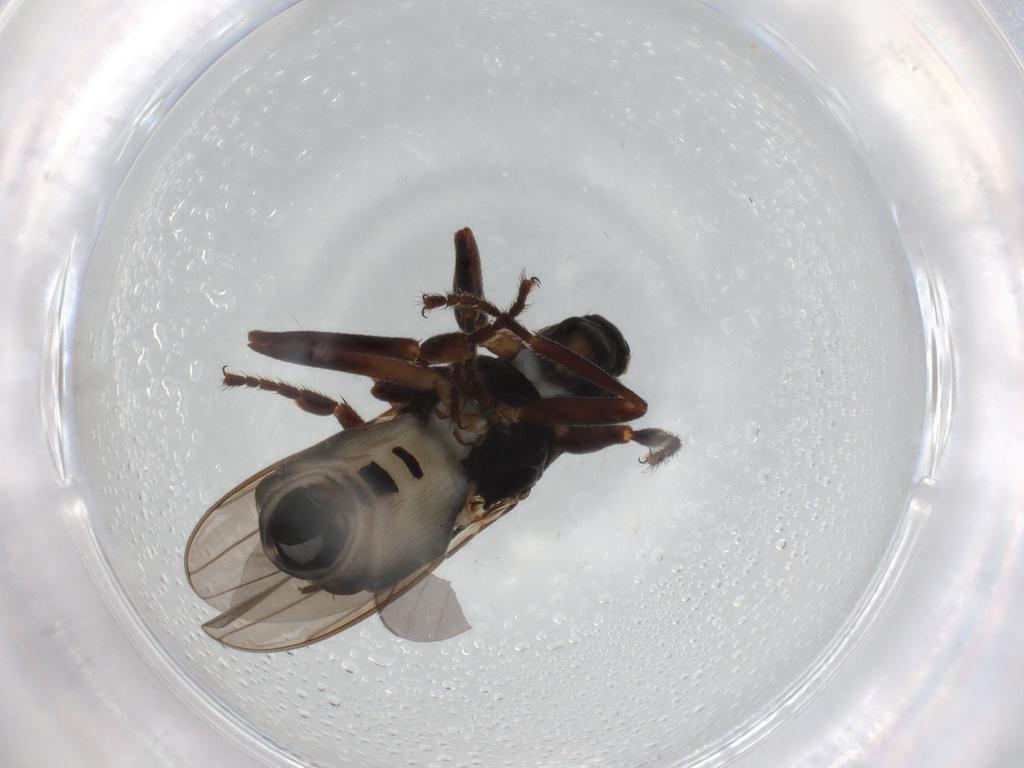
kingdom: Animalia
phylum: Arthropoda
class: Insecta
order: Diptera
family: Sphaeroceridae
